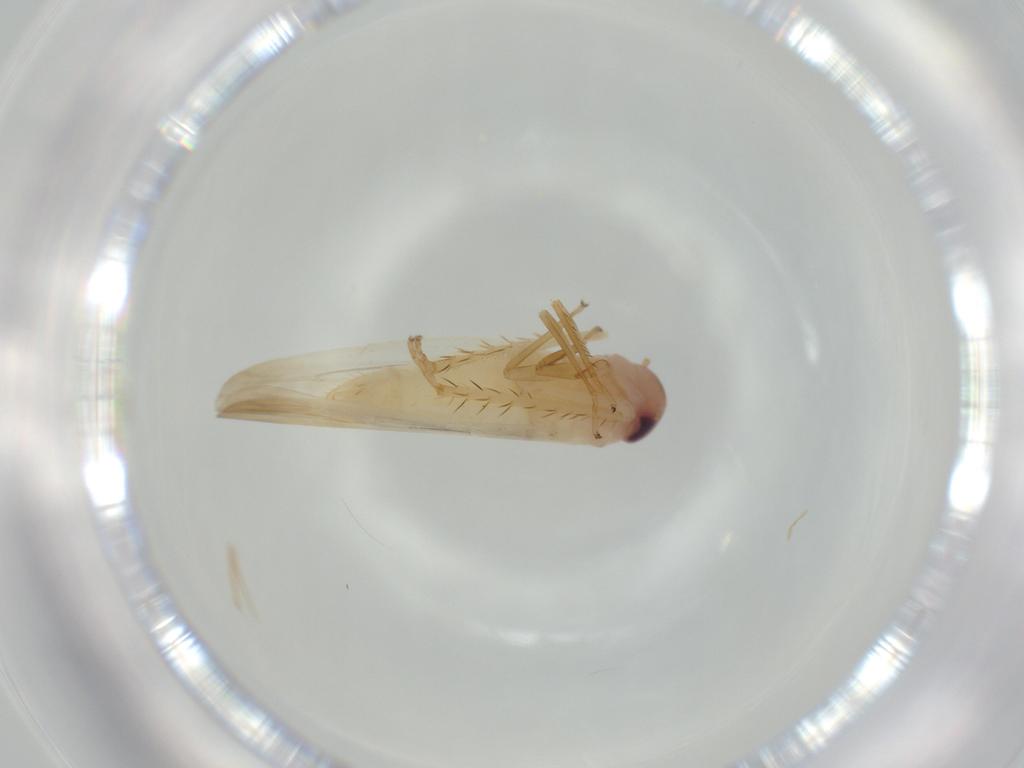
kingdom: Animalia
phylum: Arthropoda
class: Insecta
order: Hemiptera
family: Cicadellidae
